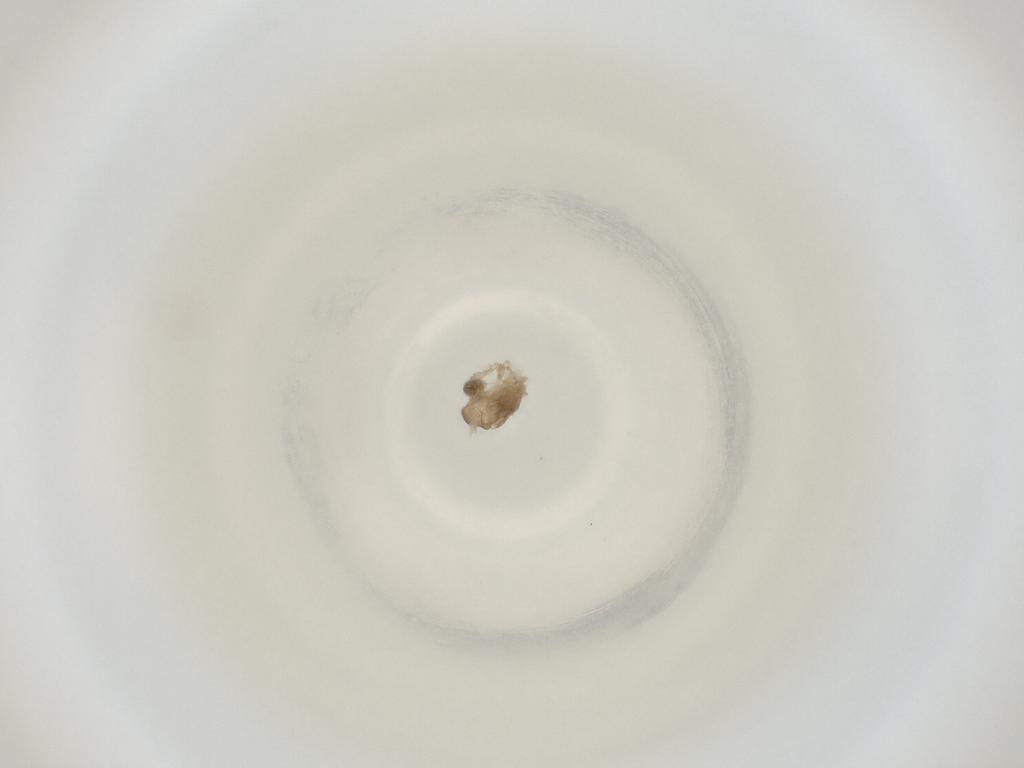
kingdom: Animalia
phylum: Arthropoda
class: Insecta
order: Diptera
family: Cecidomyiidae
